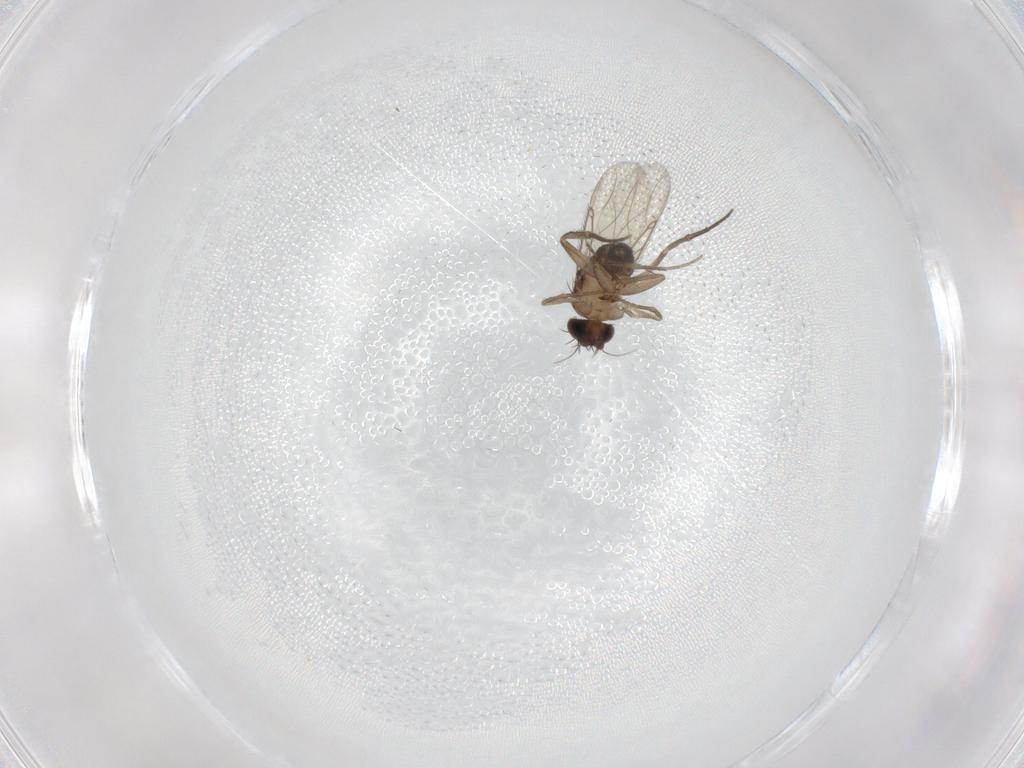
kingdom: Animalia
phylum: Arthropoda
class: Insecta
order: Diptera
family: Phoridae
